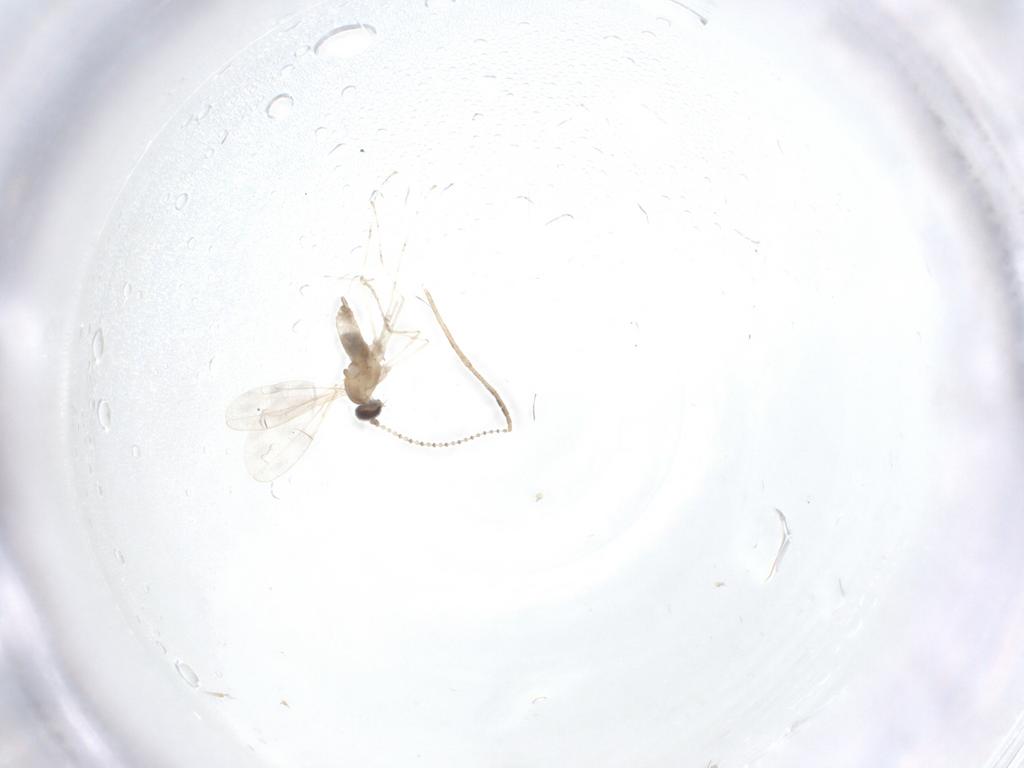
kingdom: Animalia
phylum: Arthropoda
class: Insecta
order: Diptera
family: Cecidomyiidae
